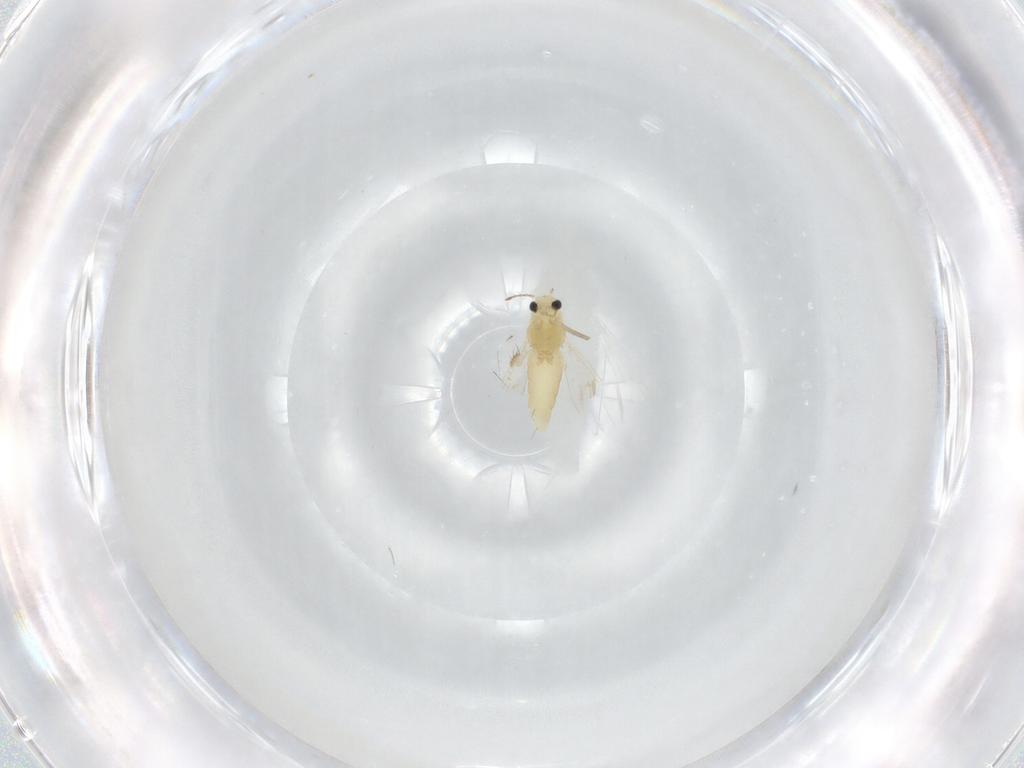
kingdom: Animalia
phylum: Arthropoda
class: Insecta
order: Diptera
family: Chironomidae
